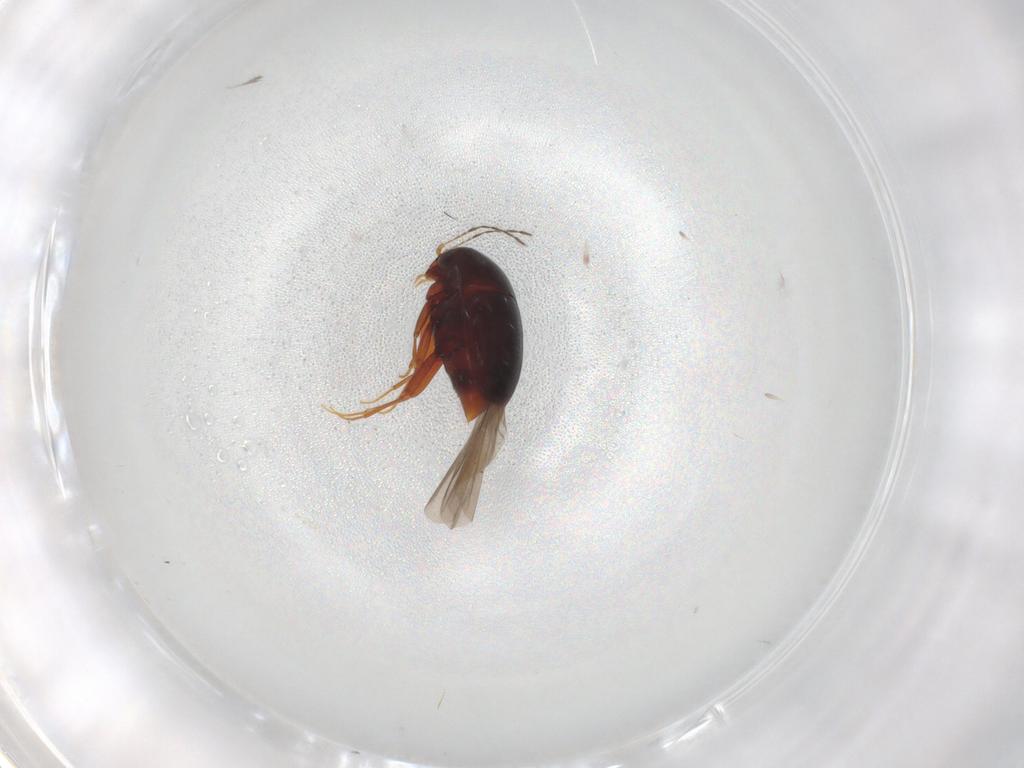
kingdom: Animalia
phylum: Arthropoda
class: Insecta
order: Coleoptera
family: Staphylinidae
